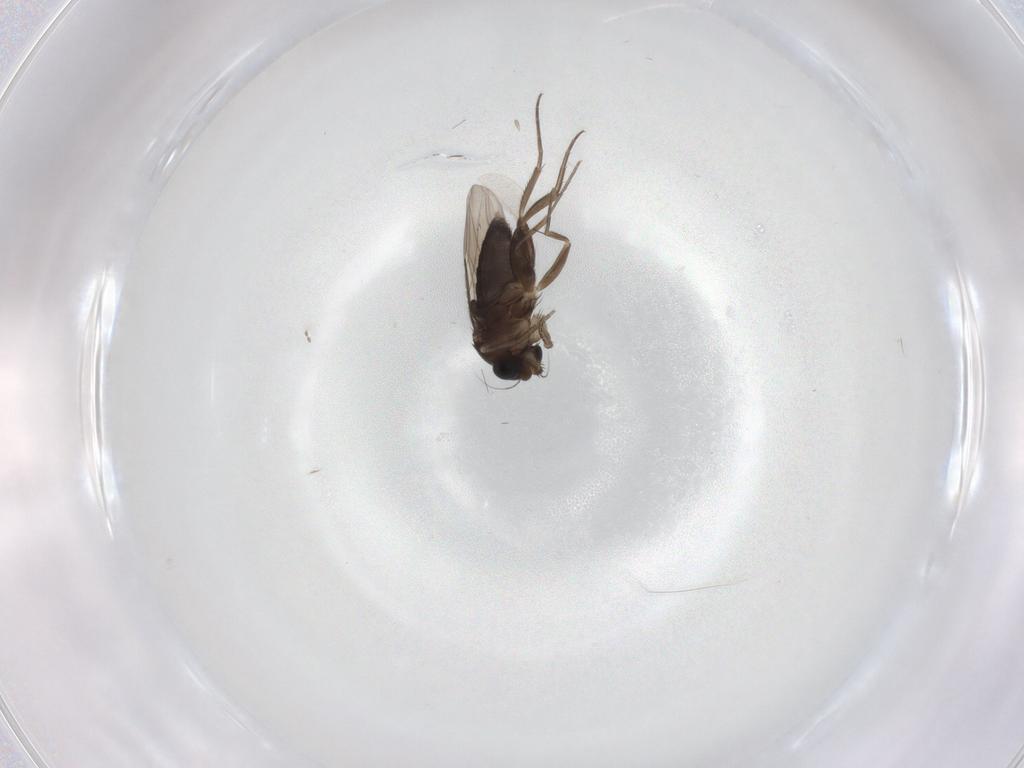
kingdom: Animalia
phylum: Arthropoda
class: Insecta
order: Diptera
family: Phoridae
